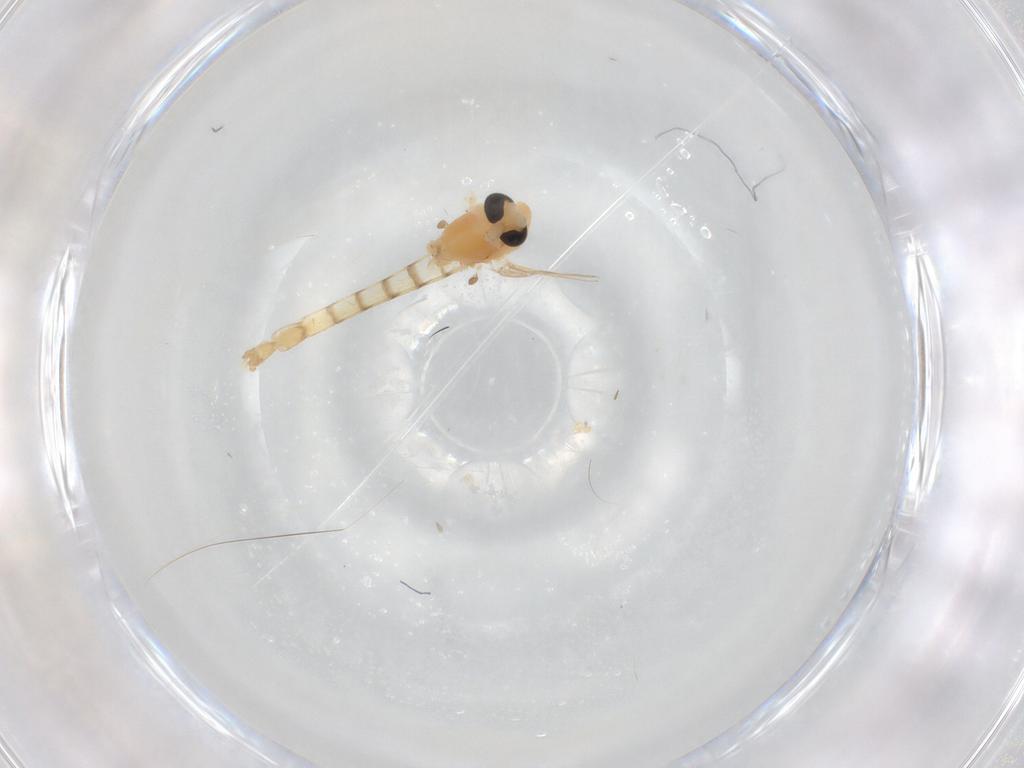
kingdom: Animalia
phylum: Arthropoda
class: Insecta
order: Diptera
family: Chironomidae
